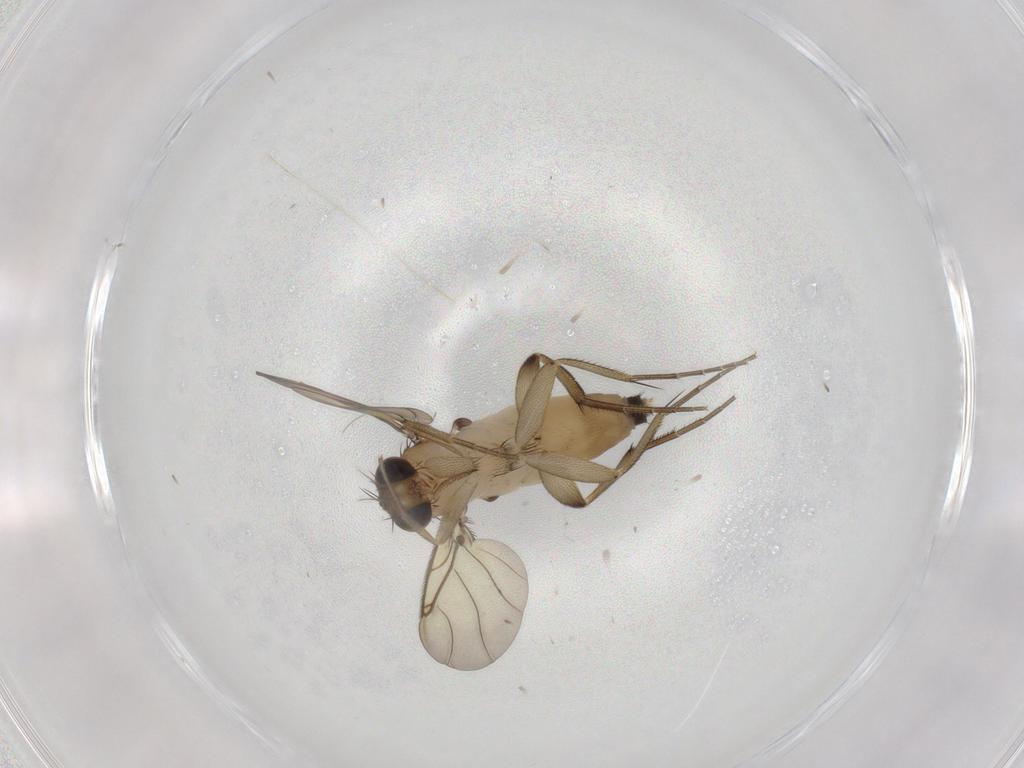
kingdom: Animalia
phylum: Arthropoda
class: Insecta
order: Diptera
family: Phoridae
